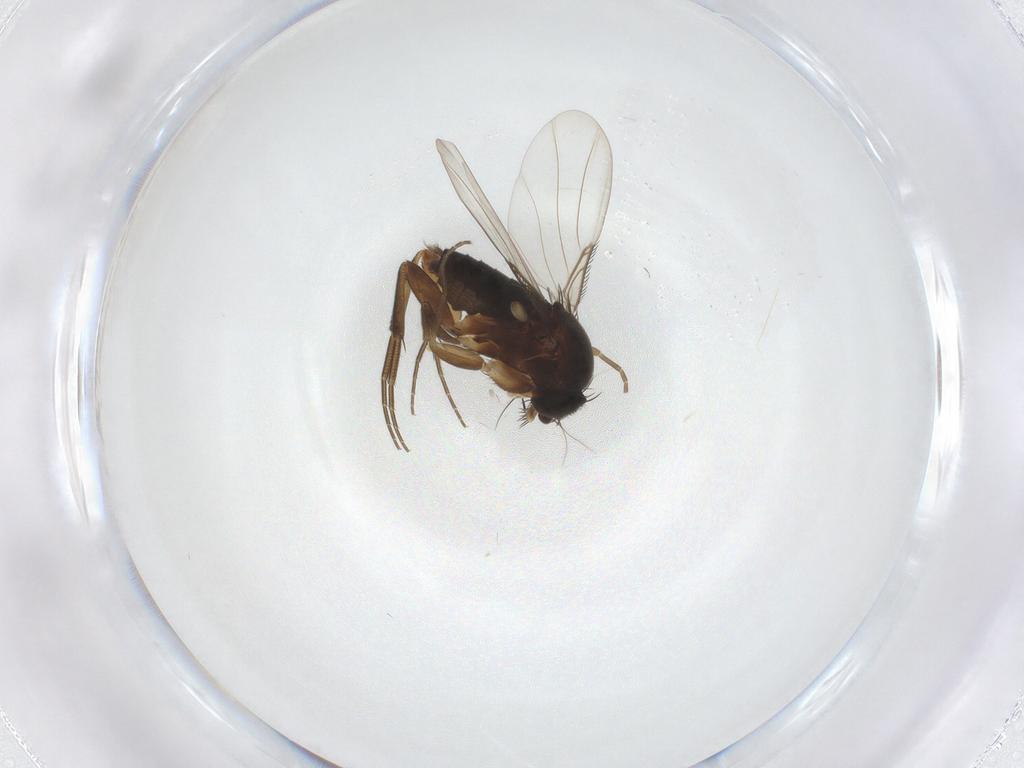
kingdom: Animalia
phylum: Arthropoda
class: Insecta
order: Diptera
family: Phoridae
